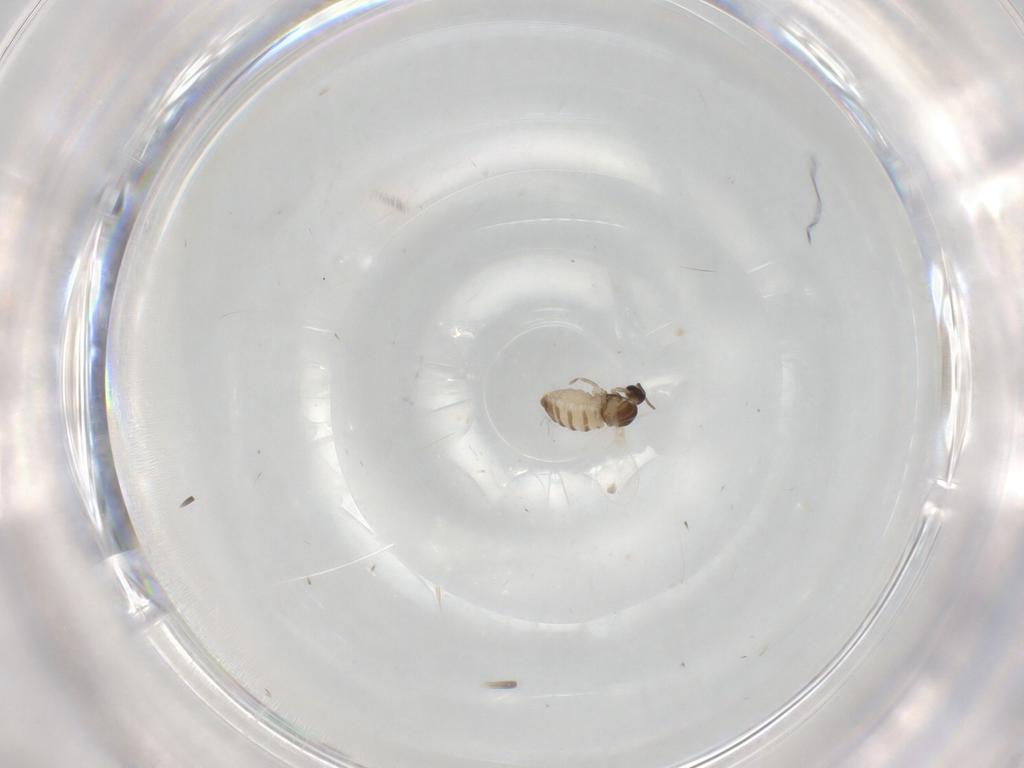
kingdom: Animalia
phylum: Arthropoda
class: Insecta
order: Diptera
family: Cecidomyiidae
